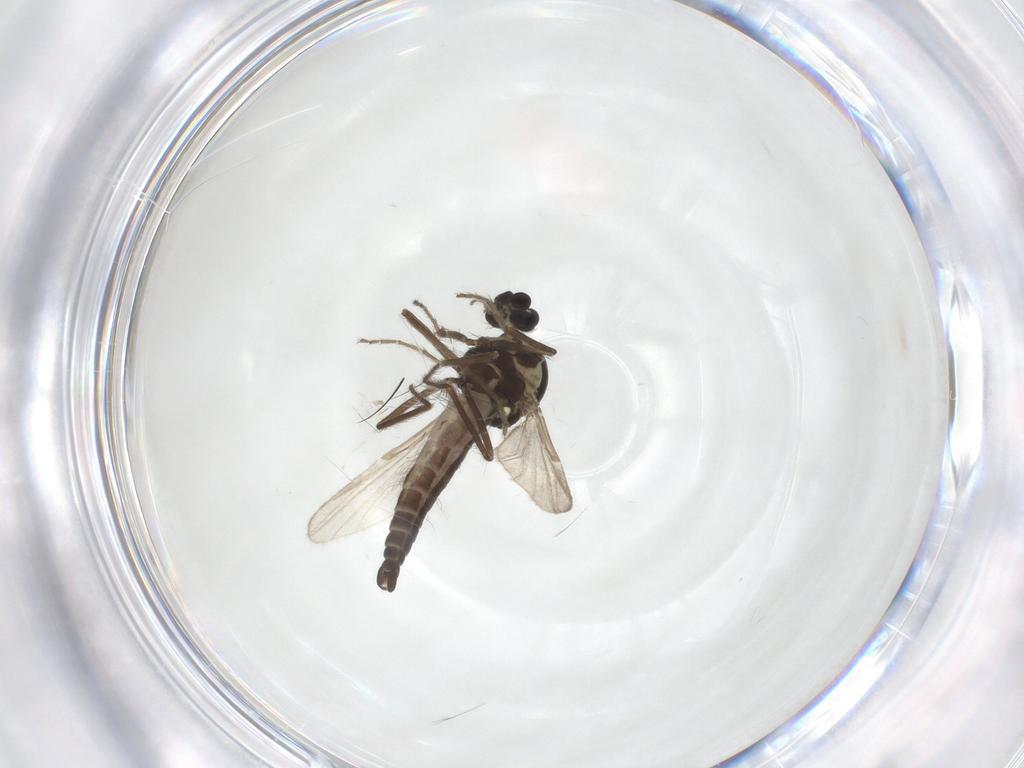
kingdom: Animalia
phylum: Arthropoda
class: Insecta
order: Diptera
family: Ceratopogonidae
